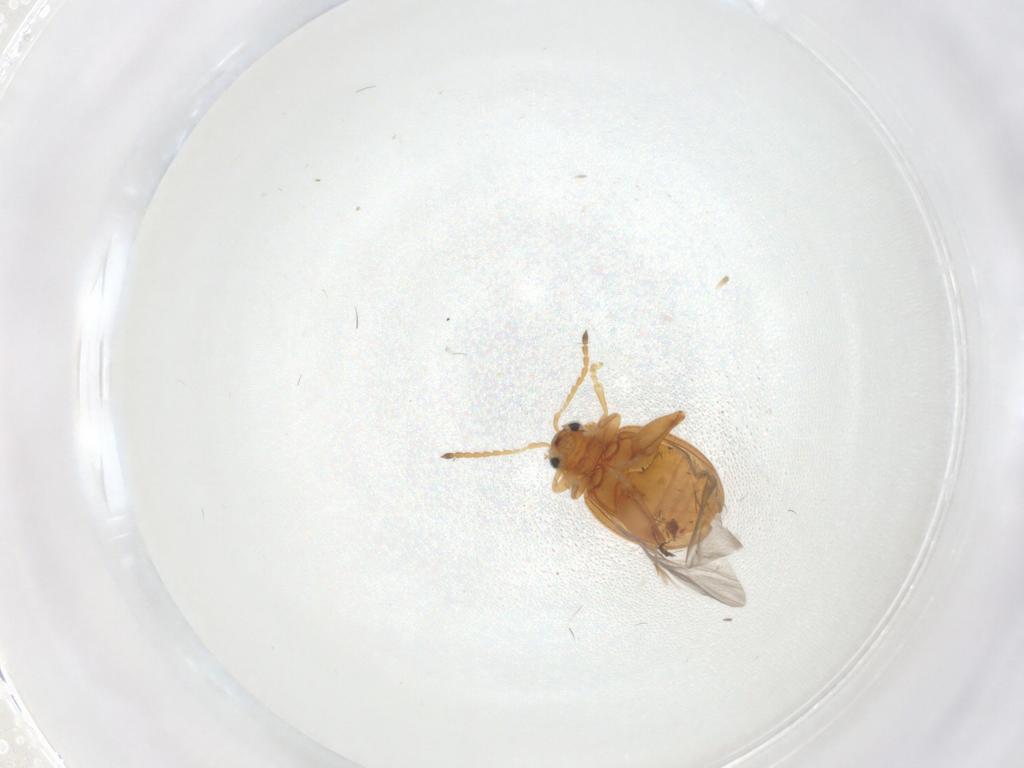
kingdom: Animalia
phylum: Arthropoda
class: Insecta
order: Coleoptera
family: Chrysomelidae
